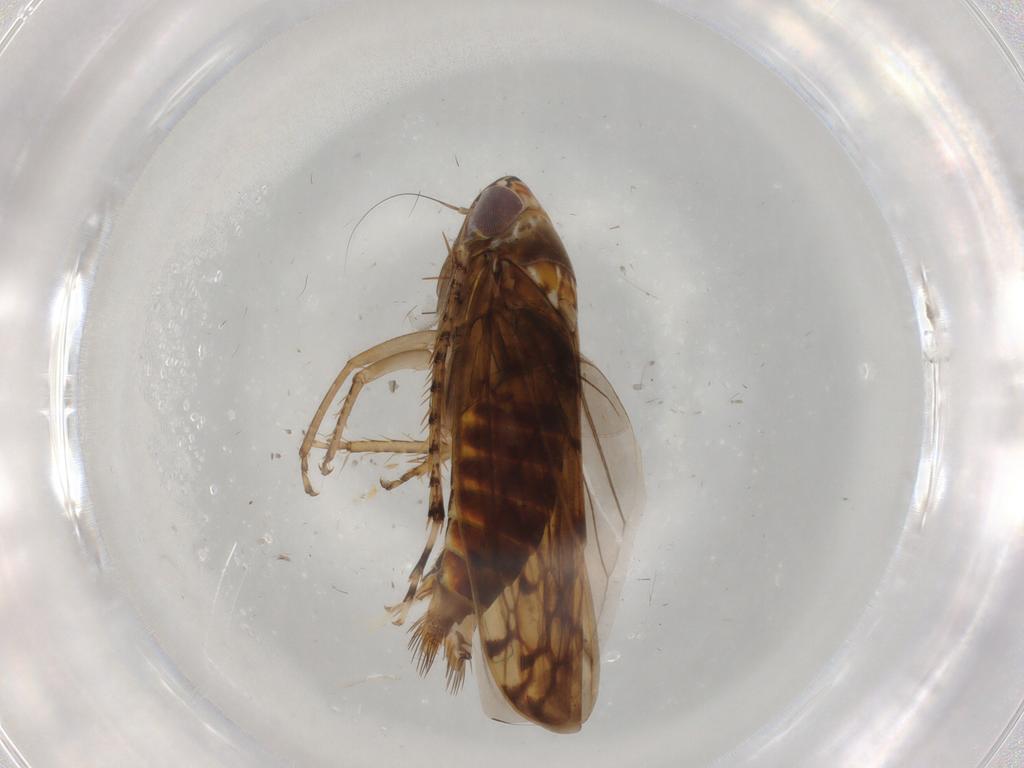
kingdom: Animalia
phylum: Arthropoda
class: Insecta
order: Hemiptera
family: Cicadellidae
